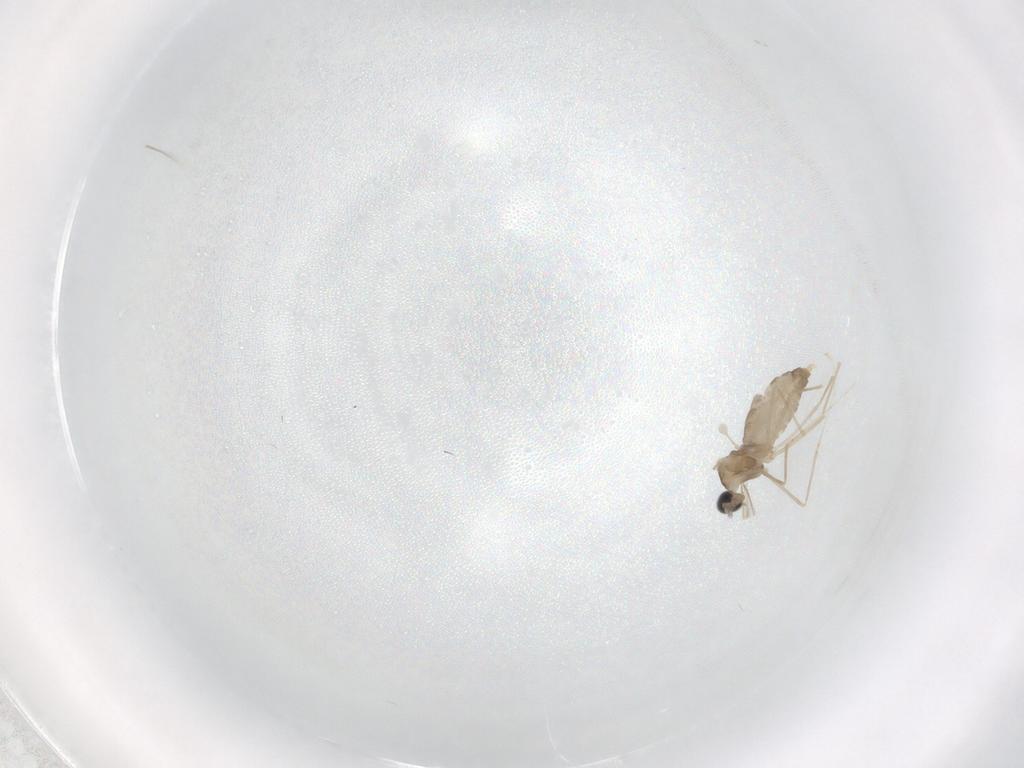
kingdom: Animalia
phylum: Arthropoda
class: Insecta
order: Diptera
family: Cecidomyiidae
